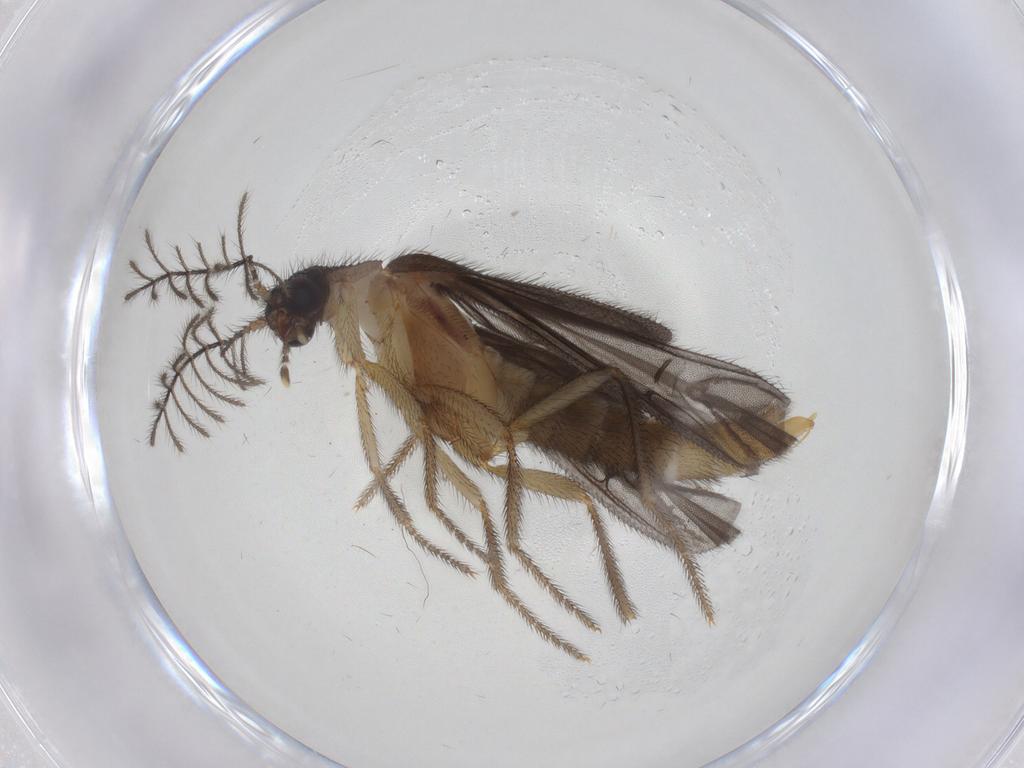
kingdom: Animalia
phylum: Arthropoda
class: Insecta
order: Coleoptera
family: Phengodidae
